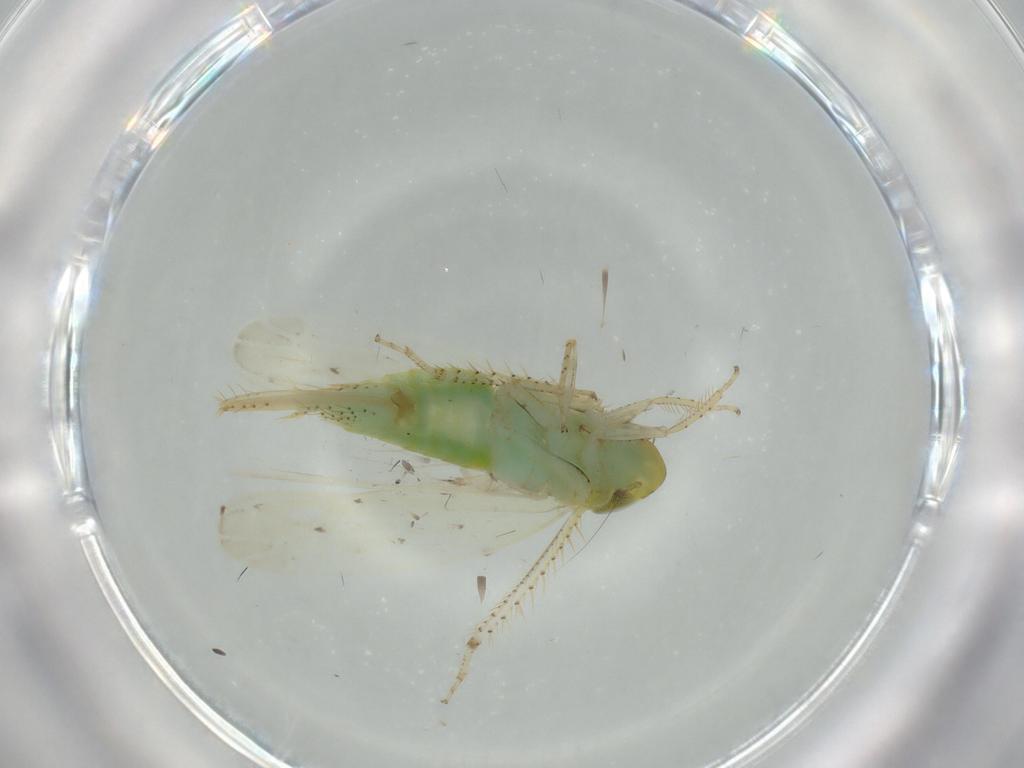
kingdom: Animalia
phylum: Arthropoda
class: Insecta
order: Hemiptera
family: Cicadellidae
